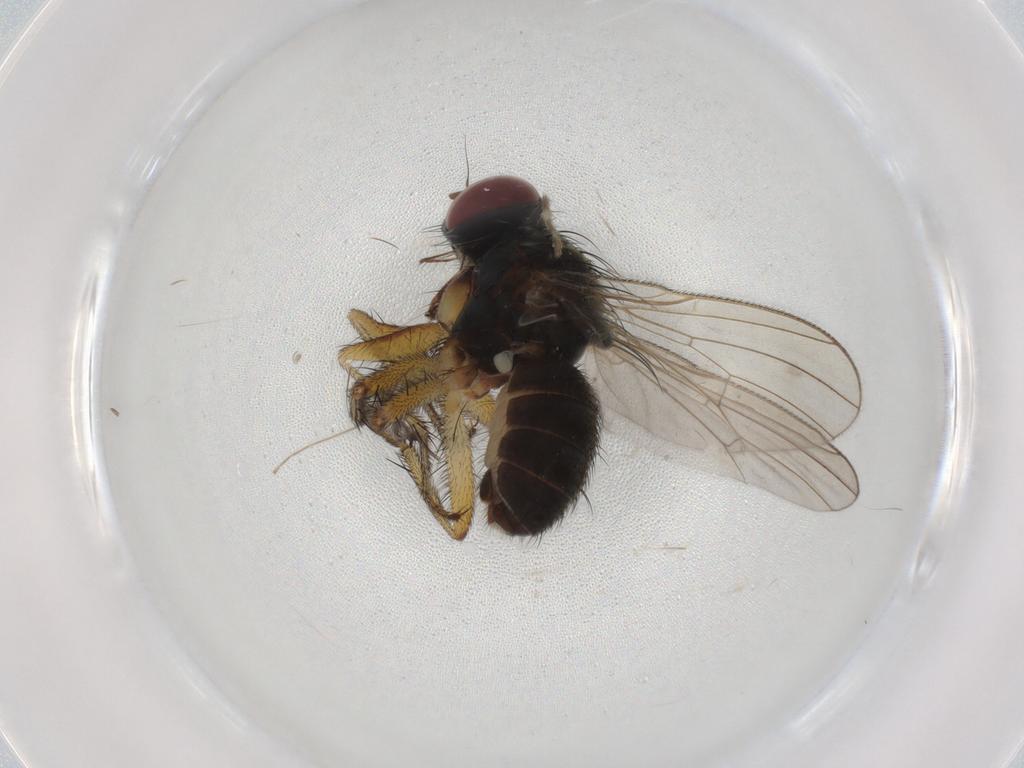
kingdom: Animalia
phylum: Arthropoda
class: Insecta
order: Diptera
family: Muscidae
